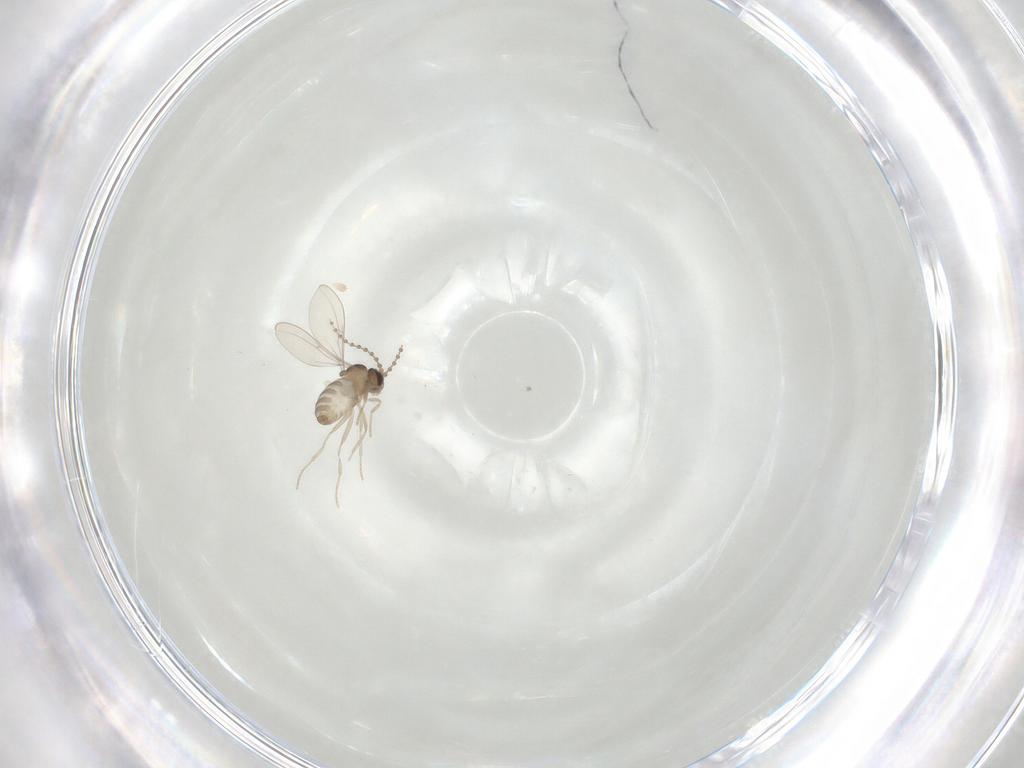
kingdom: Animalia
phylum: Arthropoda
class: Insecta
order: Diptera
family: Cecidomyiidae
